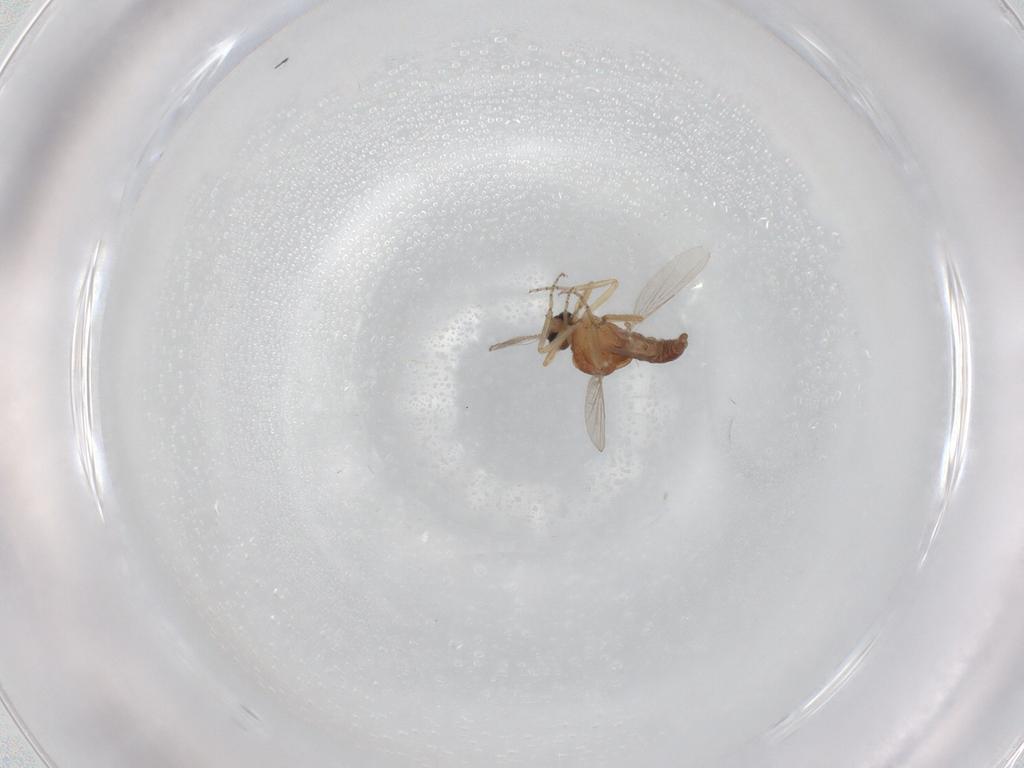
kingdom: Animalia
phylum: Arthropoda
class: Insecta
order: Diptera
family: Ceratopogonidae
